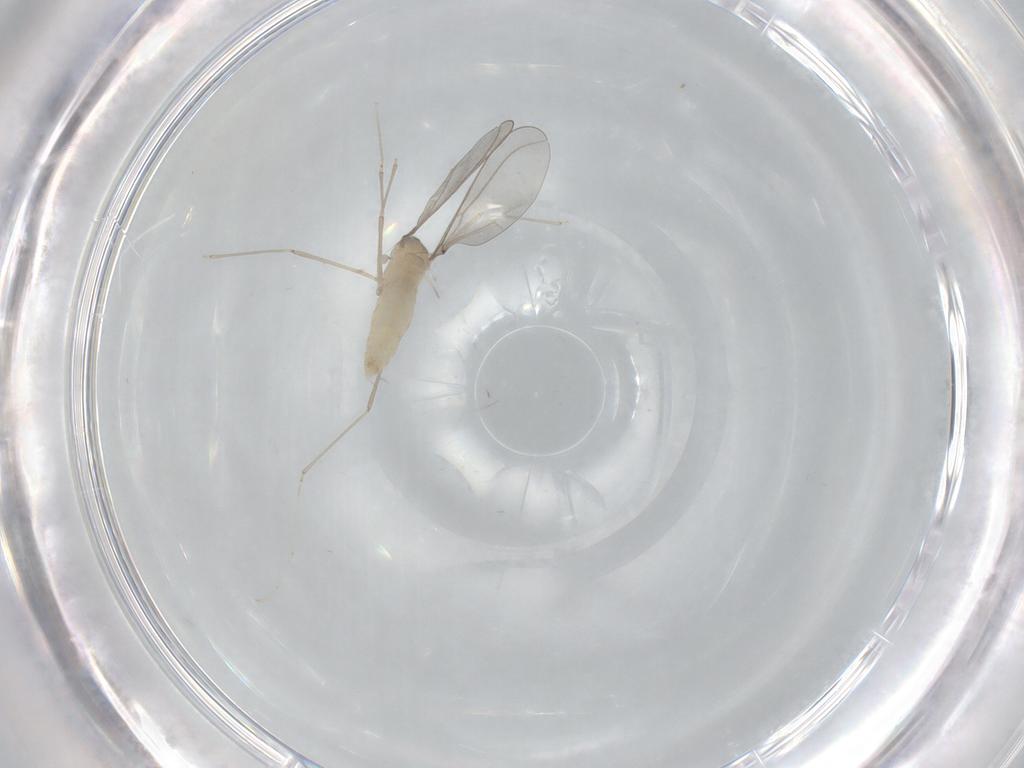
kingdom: Animalia
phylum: Arthropoda
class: Insecta
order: Diptera
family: Cecidomyiidae
